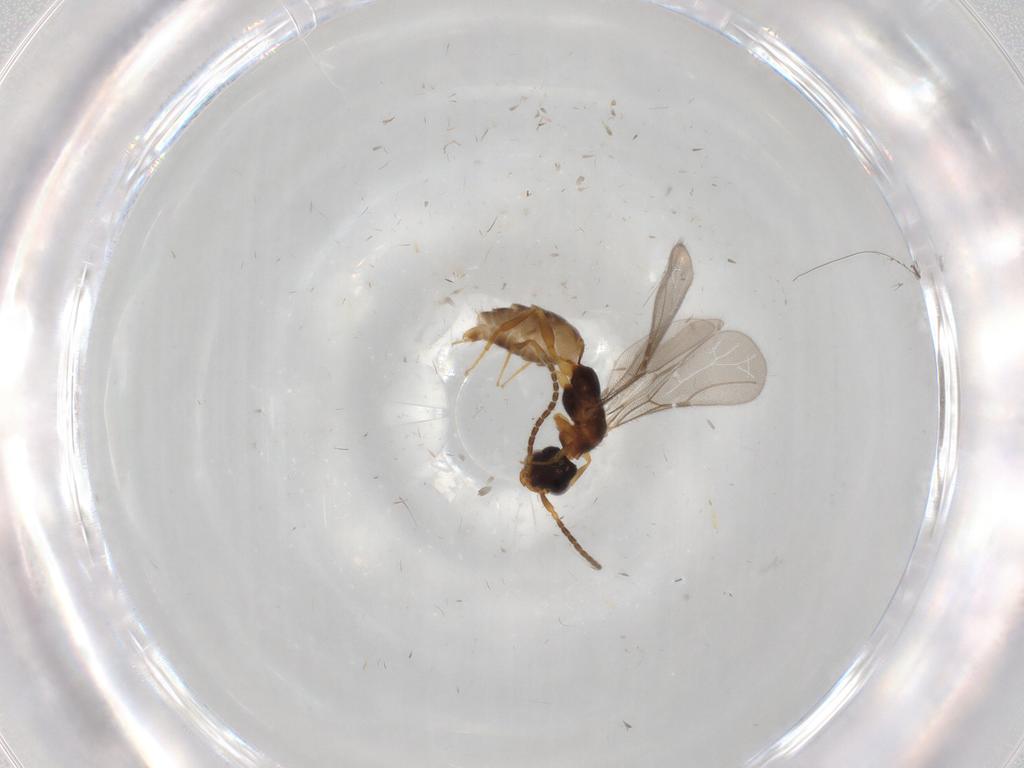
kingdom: Animalia
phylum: Arthropoda
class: Insecta
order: Hymenoptera
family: Bethylidae
